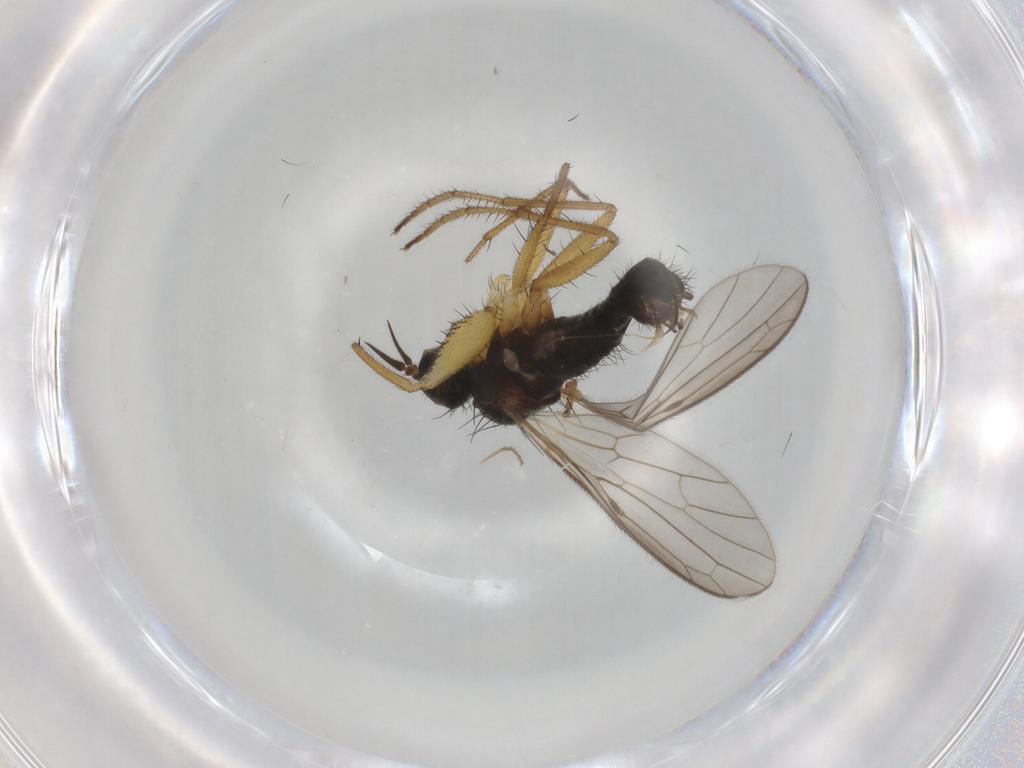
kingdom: Animalia
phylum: Arthropoda
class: Insecta
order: Diptera
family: Empididae
